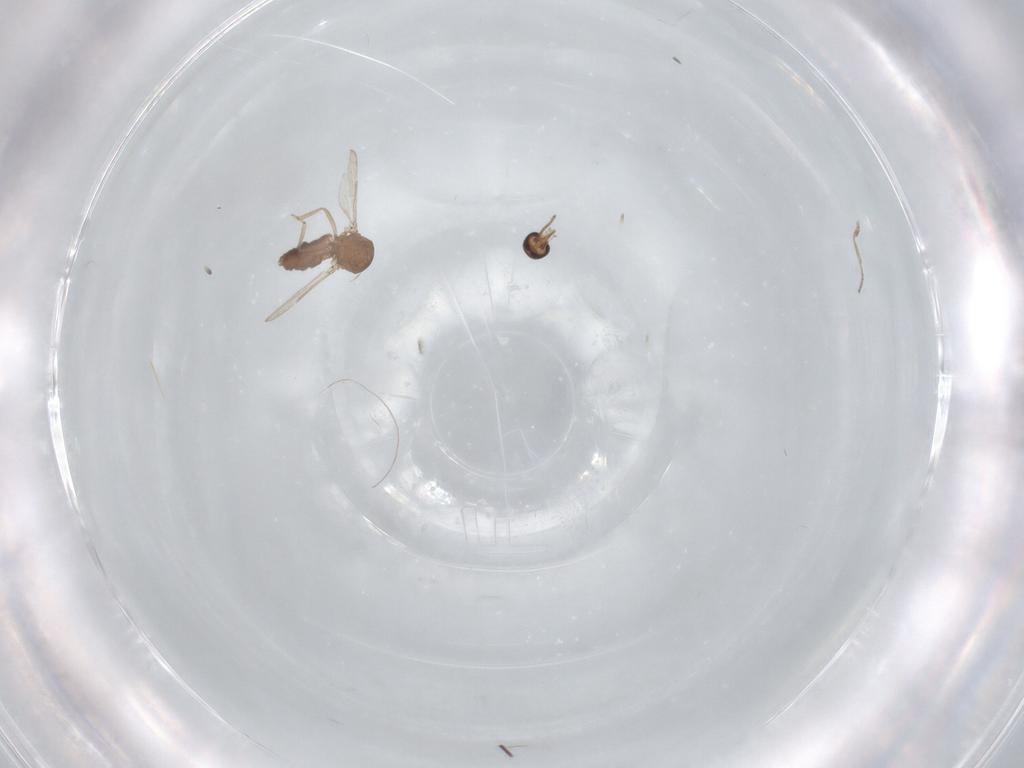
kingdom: Animalia
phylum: Arthropoda
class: Insecta
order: Diptera
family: Ceratopogonidae
